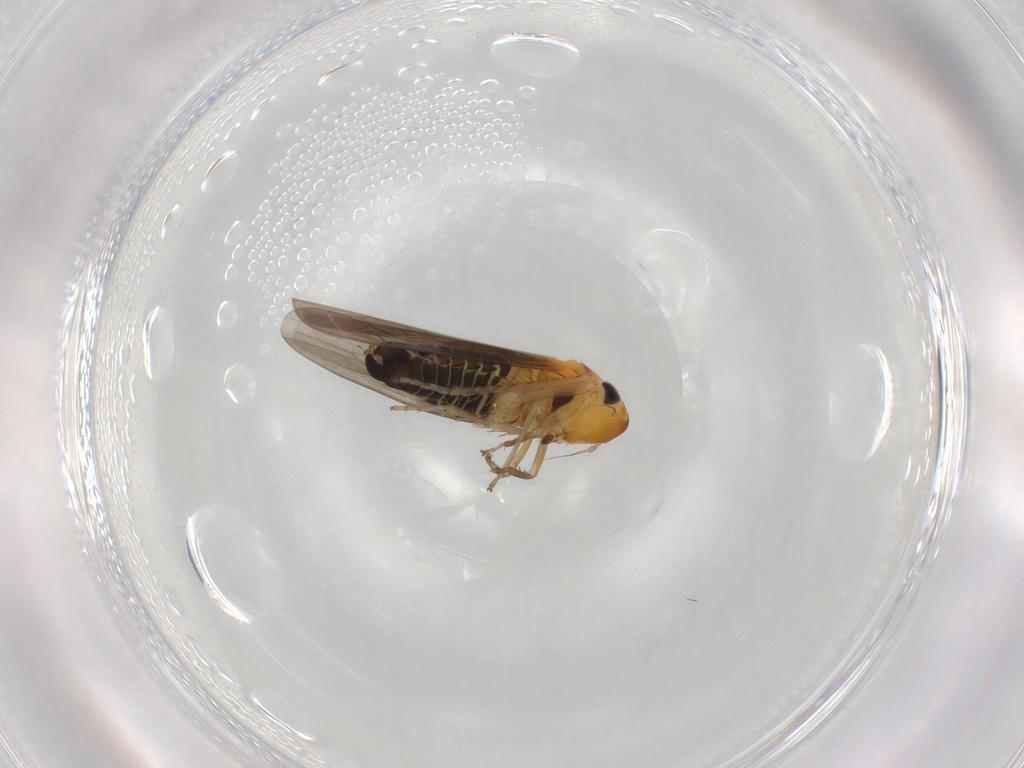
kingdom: Animalia
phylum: Arthropoda
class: Insecta
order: Hemiptera
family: Cicadellidae
